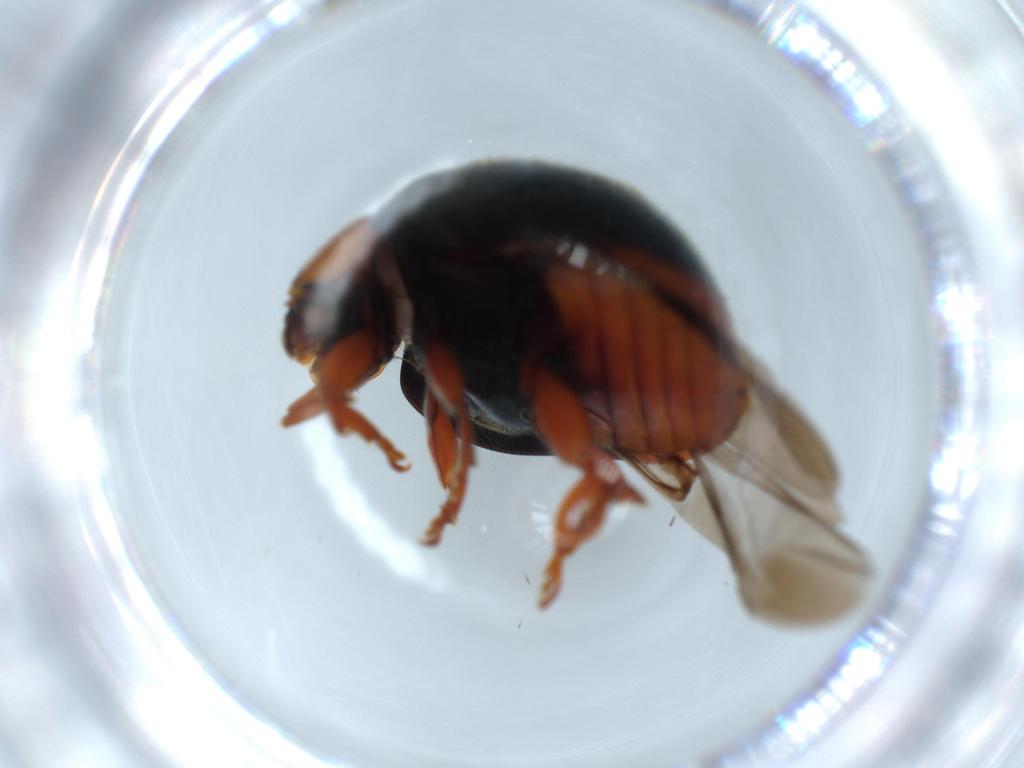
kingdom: Animalia
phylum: Arthropoda
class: Insecta
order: Coleoptera
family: Coccinellidae
